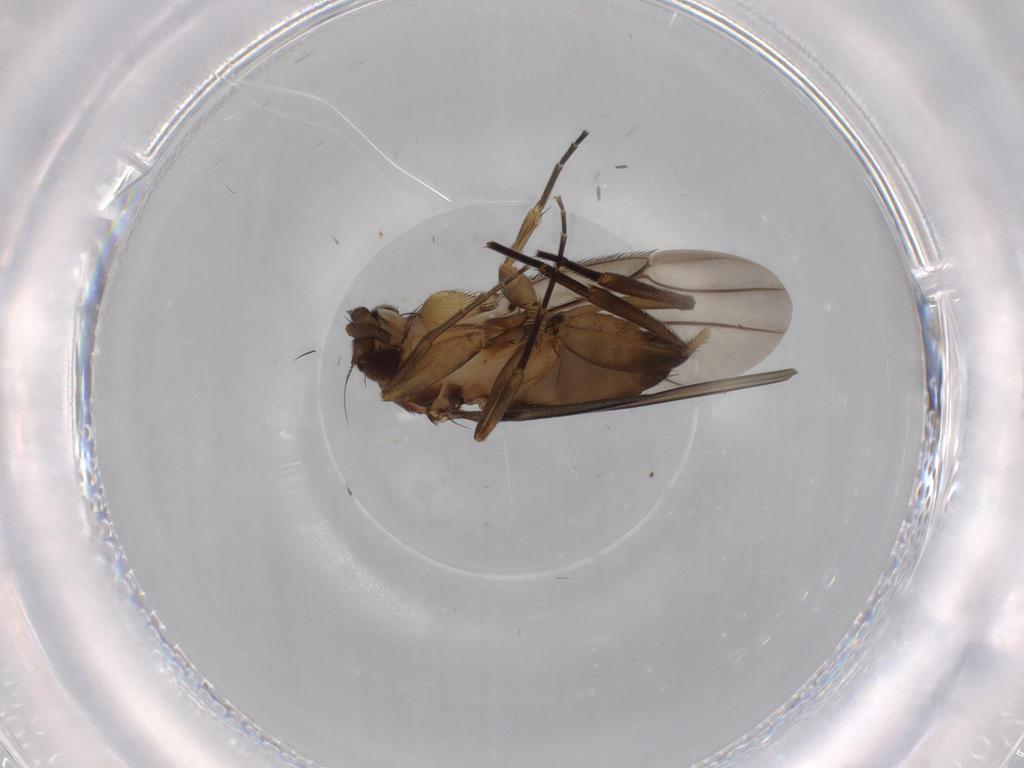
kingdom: Animalia
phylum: Arthropoda
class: Insecta
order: Diptera
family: Phoridae
